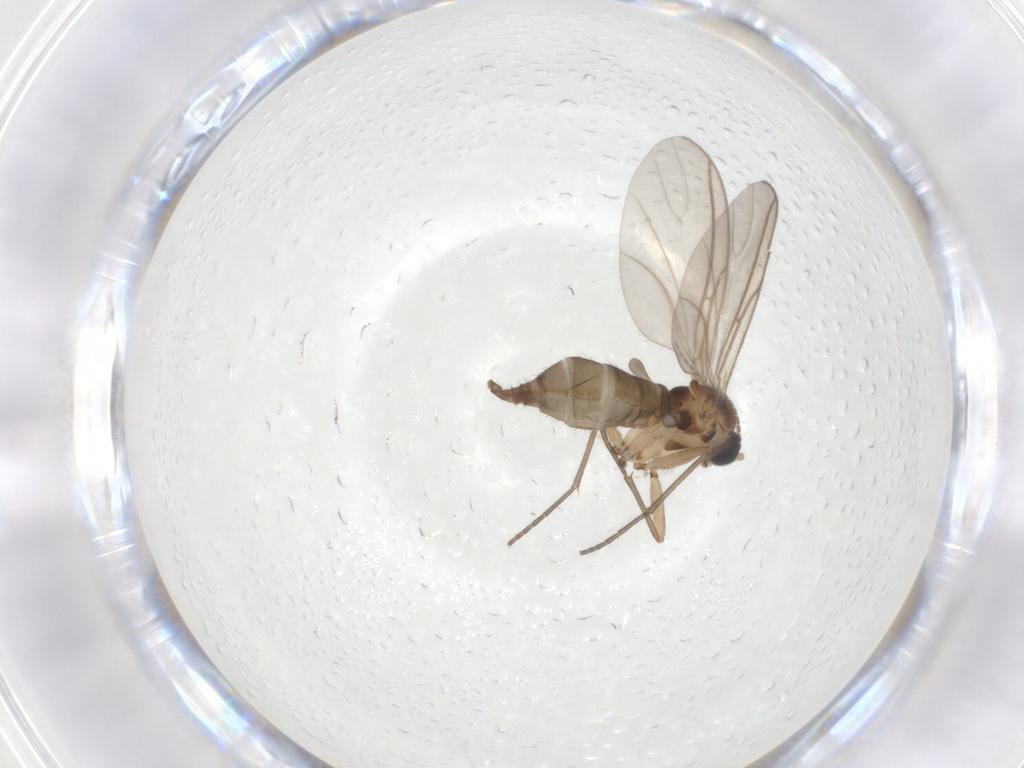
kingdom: Animalia
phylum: Arthropoda
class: Insecta
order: Diptera
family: Sciaridae
